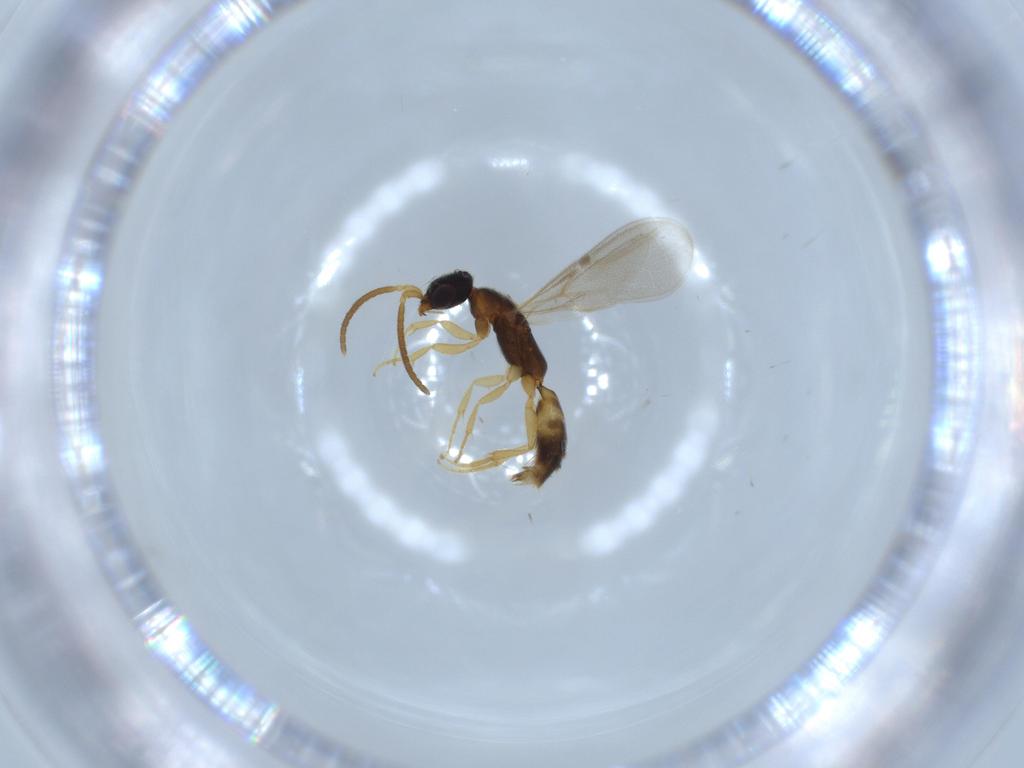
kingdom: Animalia
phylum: Arthropoda
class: Insecta
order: Hymenoptera
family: Bethylidae
